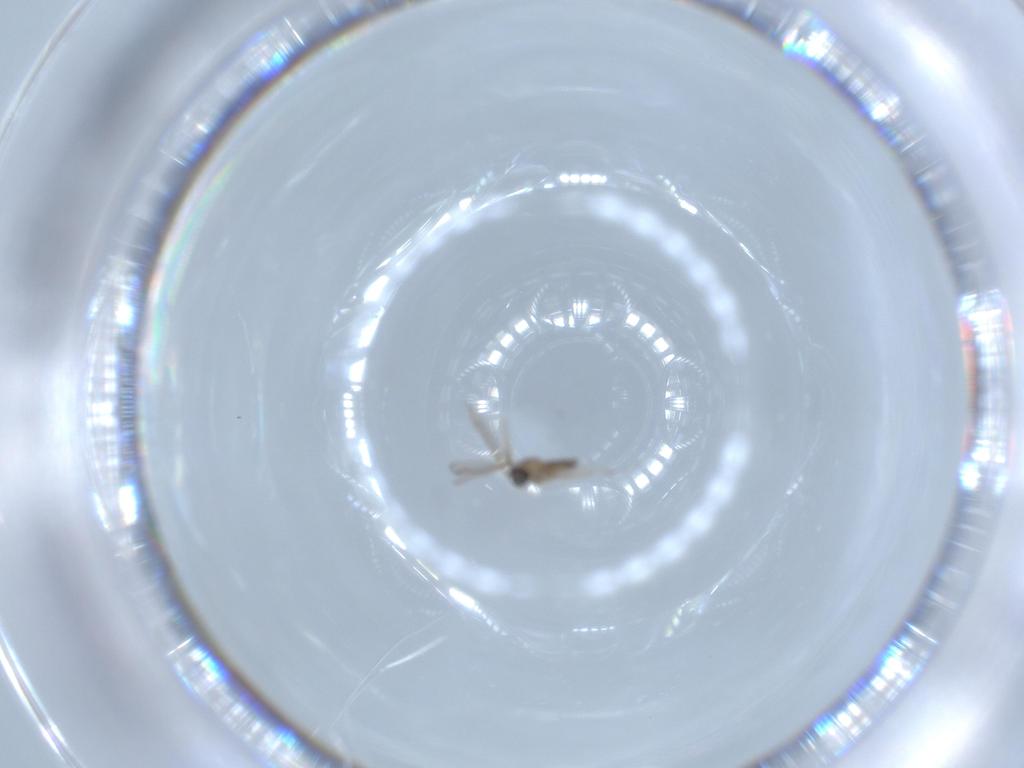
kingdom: Animalia
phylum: Arthropoda
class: Insecta
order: Diptera
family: Cecidomyiidae
